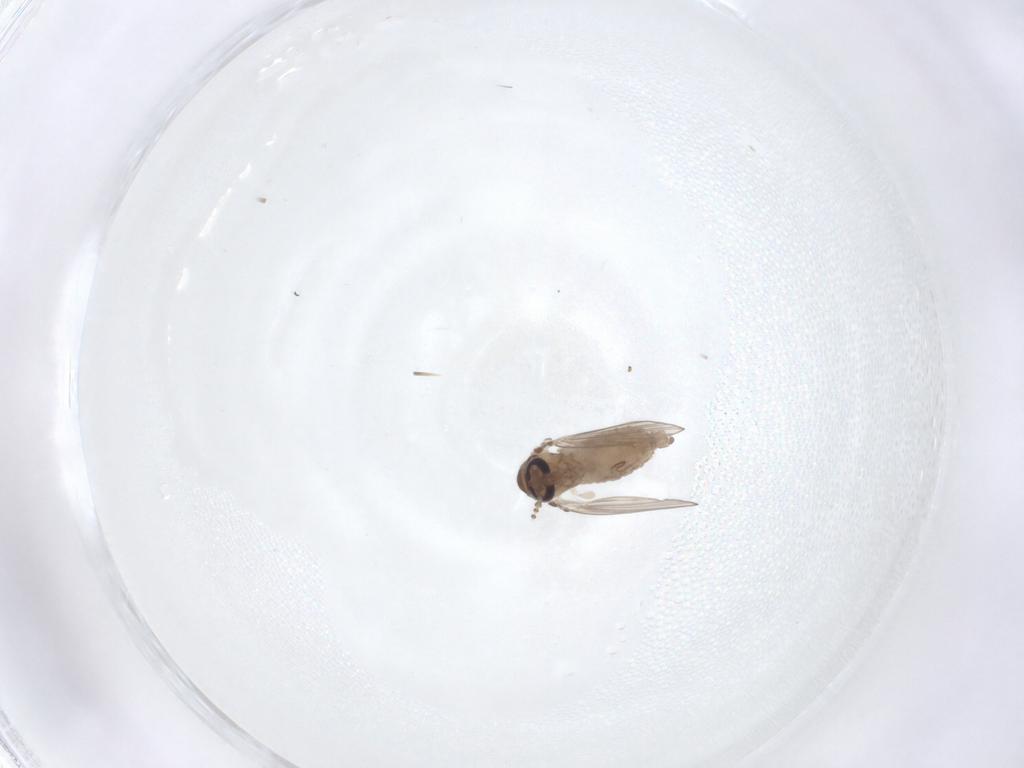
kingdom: Animalia
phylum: Arthropoda
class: Insecta
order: Diptera
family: Psychodidae
